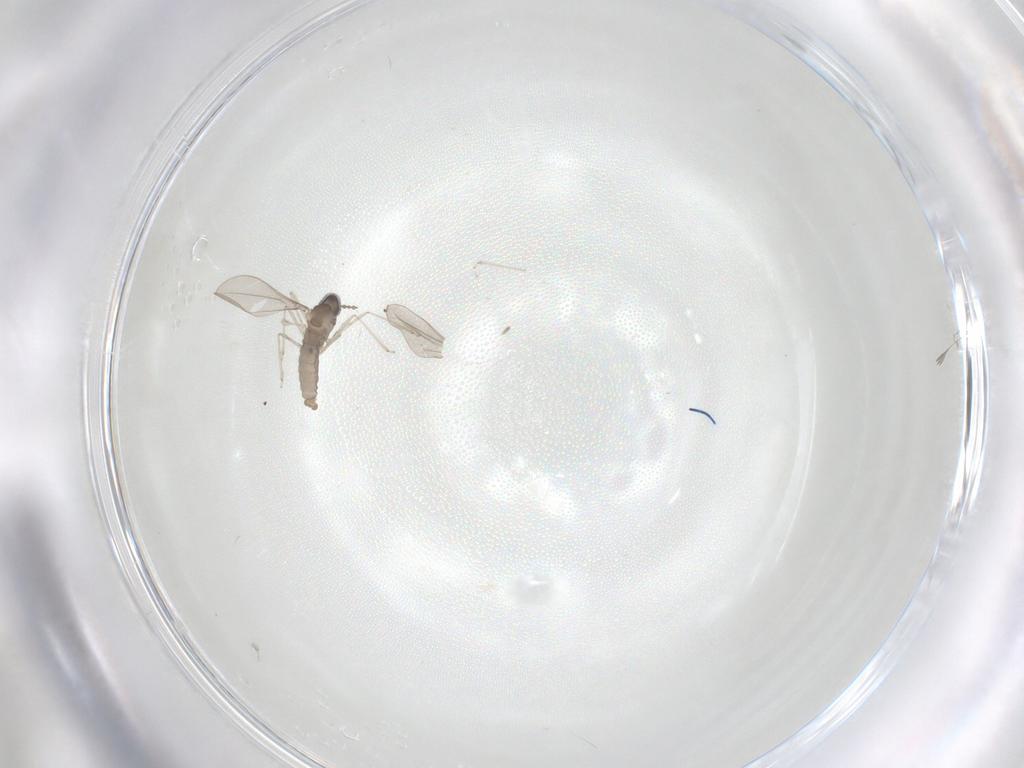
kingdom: Animalia
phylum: Arthropoda
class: Insecta
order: Diptera
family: Cecidomyiidae
